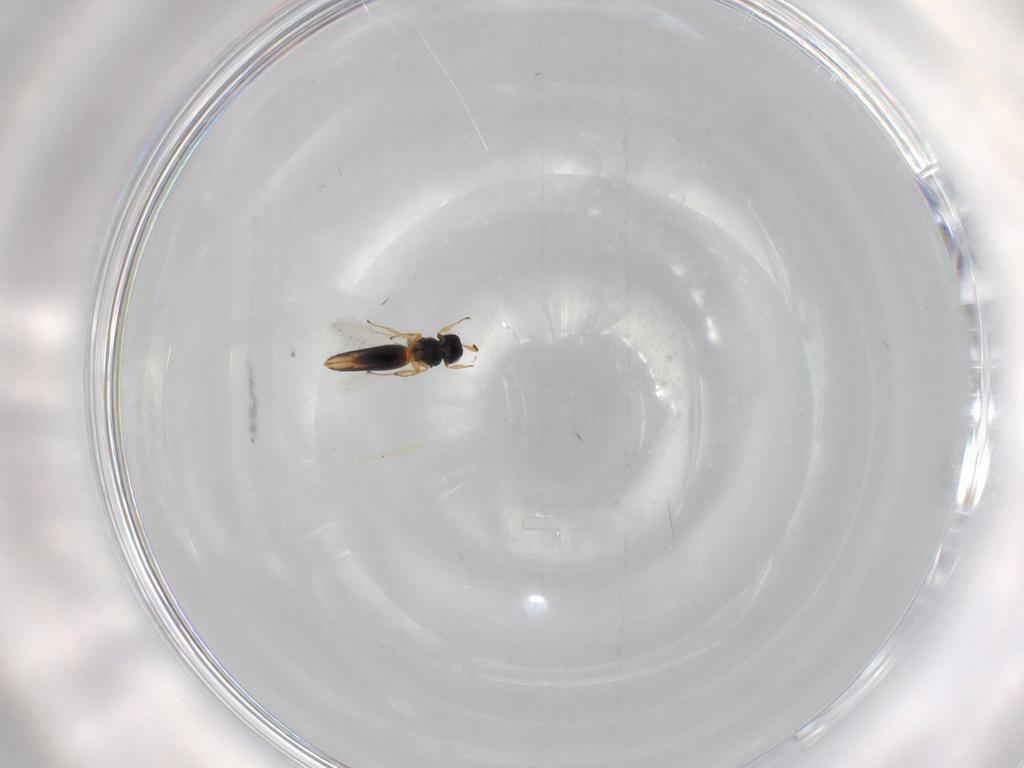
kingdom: Animalia
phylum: Arthropoda
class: Insecta
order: Hymenoptera
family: Scelionidae
